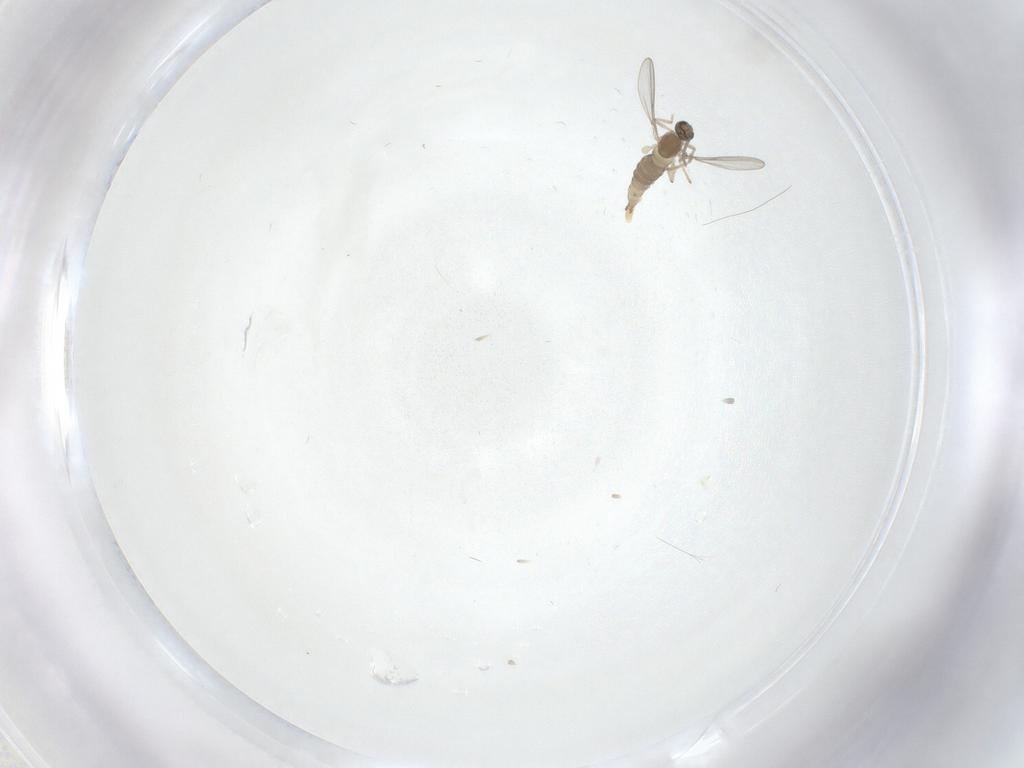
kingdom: Animalia
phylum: Arthropoda
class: Insecta
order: Diptera
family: Cecidomyiidae
